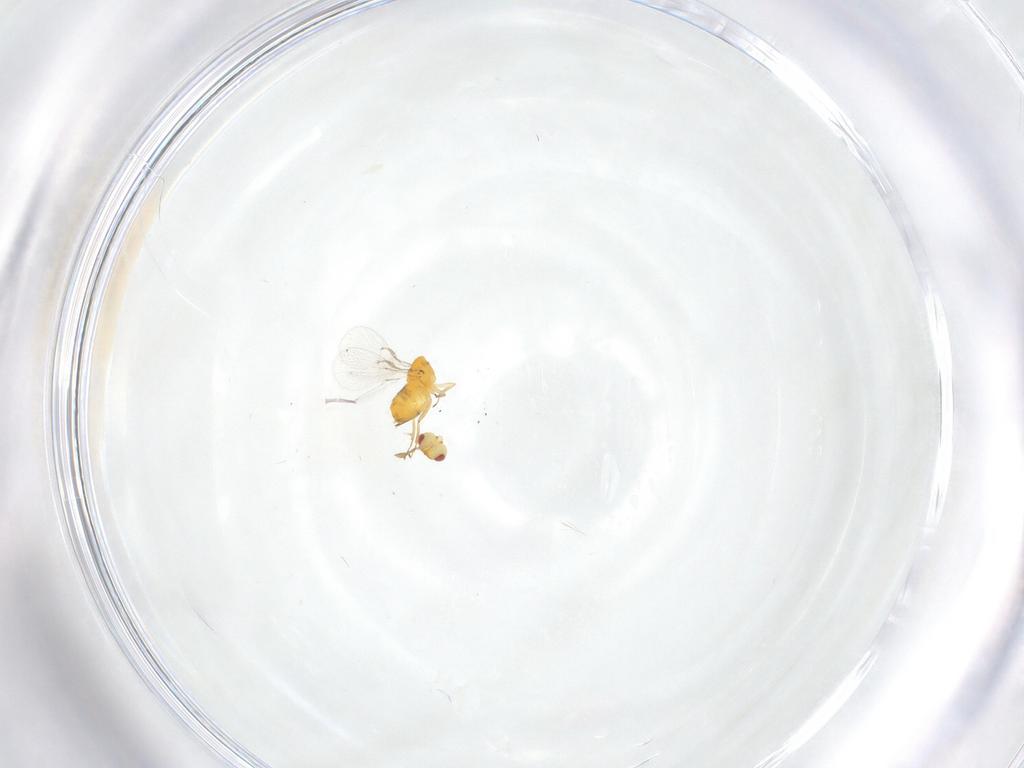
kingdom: Animalia
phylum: Arthropoda
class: Insecta
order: Hymenoptera
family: Trichogrammatidae
